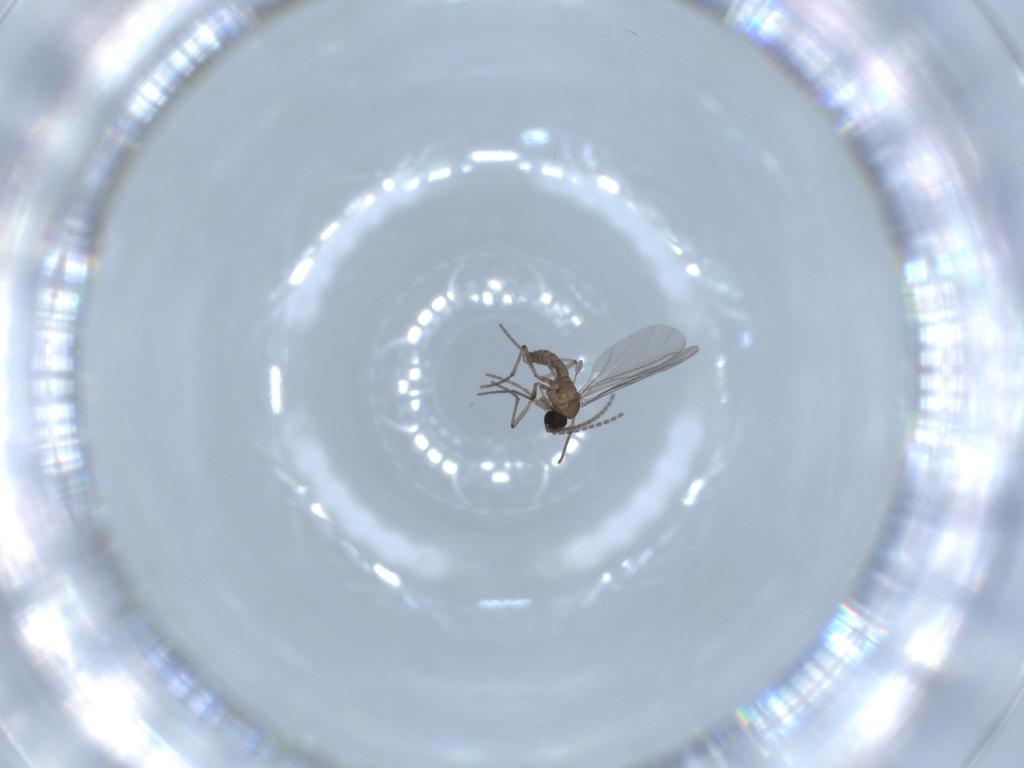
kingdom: Animalia
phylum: Arthropoda
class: Insecta
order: Diptera
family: Sciaridae
